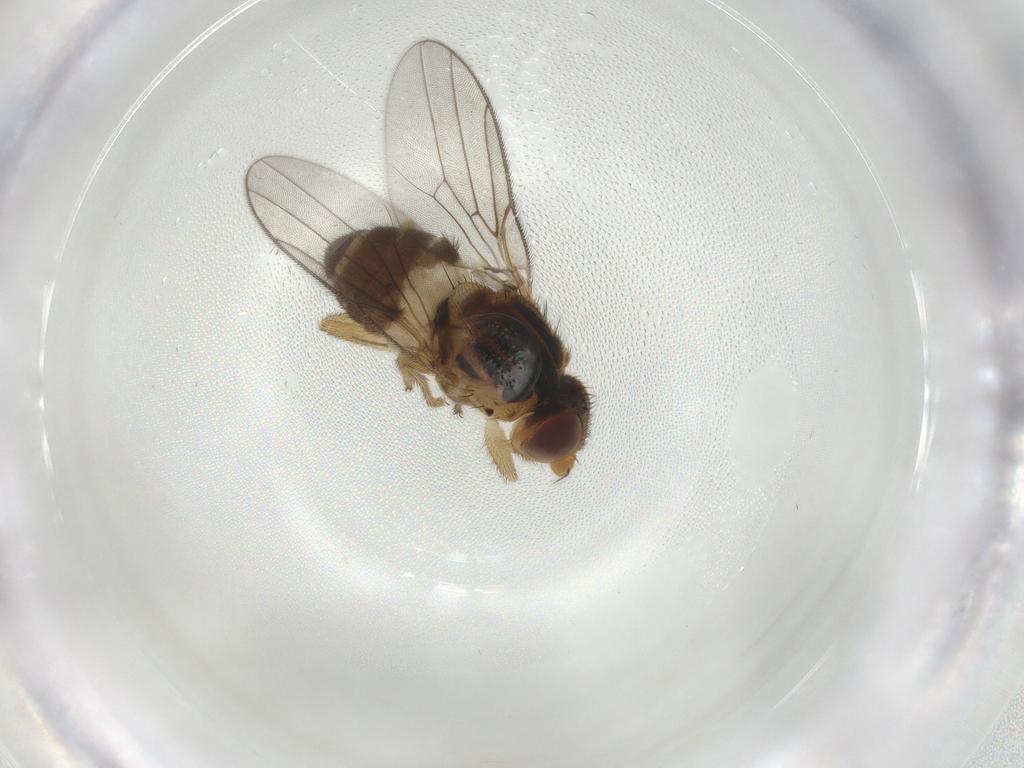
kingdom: Animalia
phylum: Arthropoda
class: Insecta
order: Diptera
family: Chloropidae
